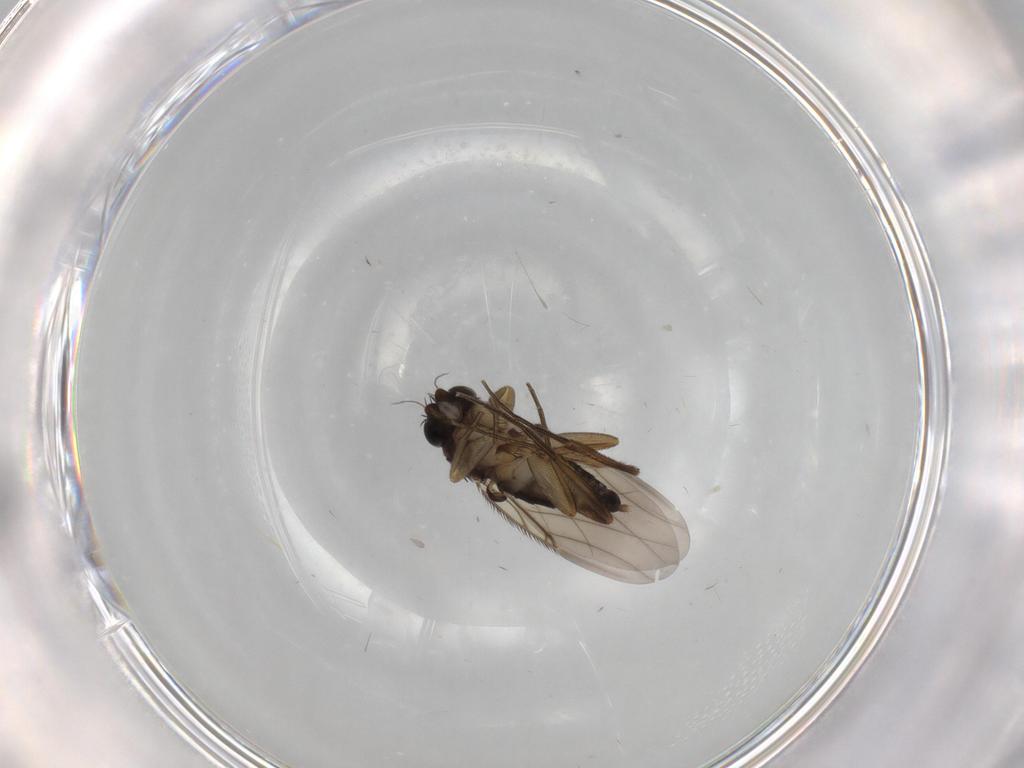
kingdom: Animalia
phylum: Arthropoda
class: Insecta
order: Diptera
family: Phoridae
